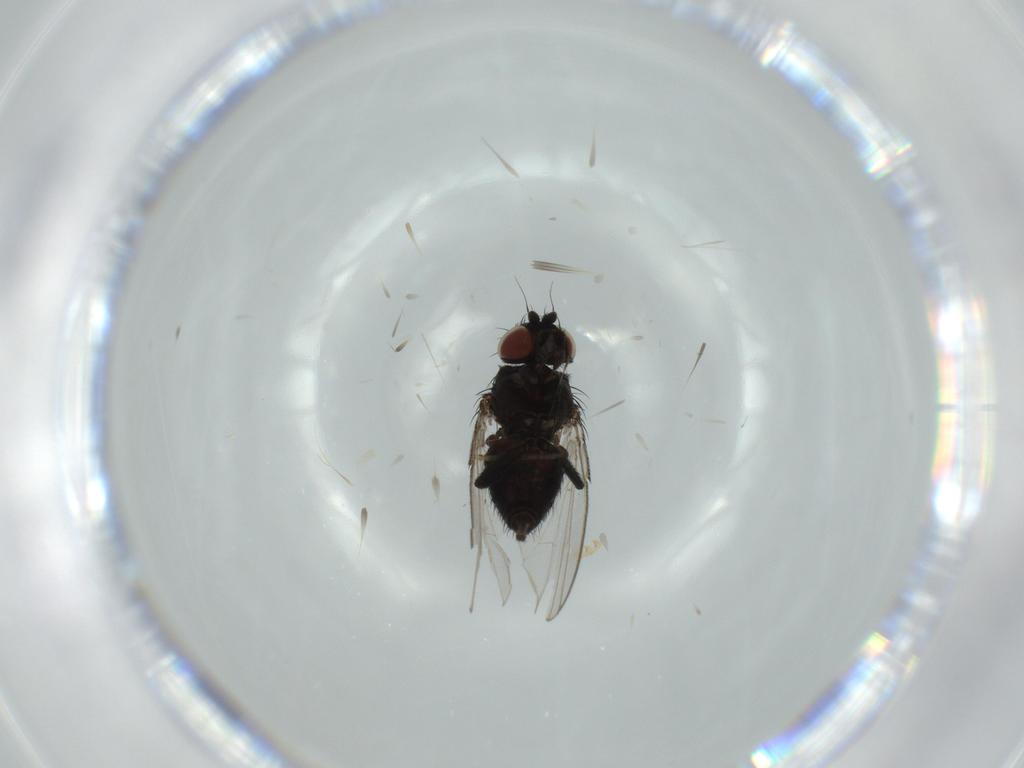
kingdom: Animalia
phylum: Arthropoda
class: Insecta
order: Diptera
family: Milichiidae
